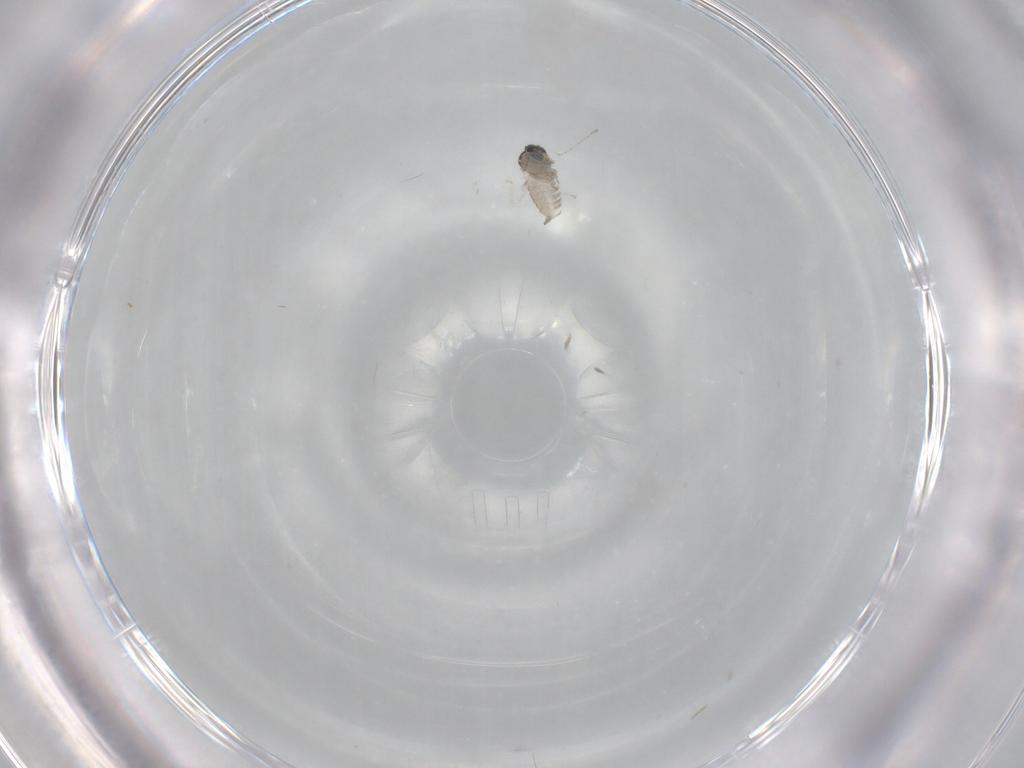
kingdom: Animalia
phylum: Arthropoda
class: Insecta
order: Diptera
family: Cecidomyiidae
